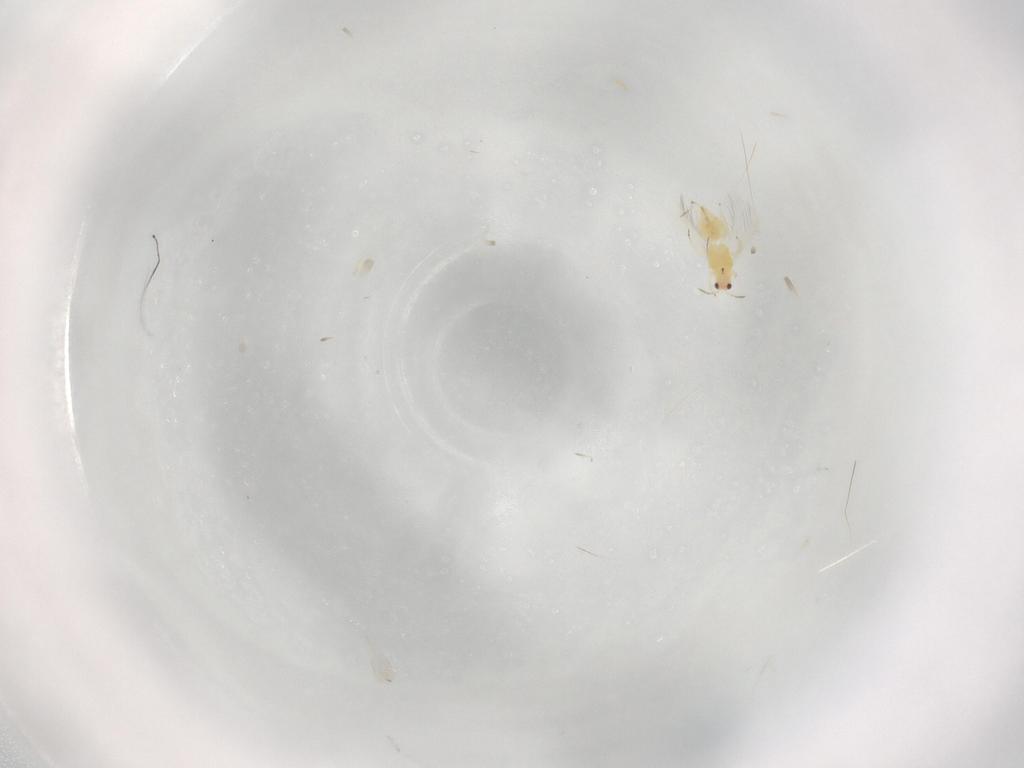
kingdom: Animalia
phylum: Arthropoda
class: Insecta
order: Thysanoptera
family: Thripidae
